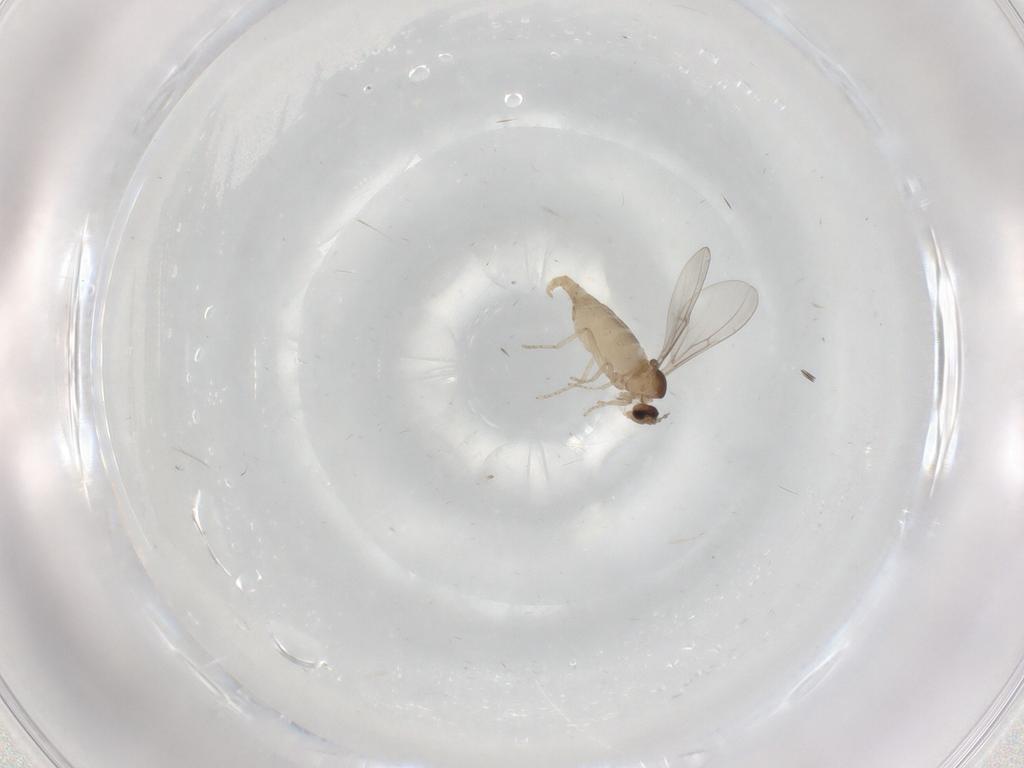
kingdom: Animalia
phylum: Arthropoda
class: Insecta
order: Diptera
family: Cecidomyiidae
